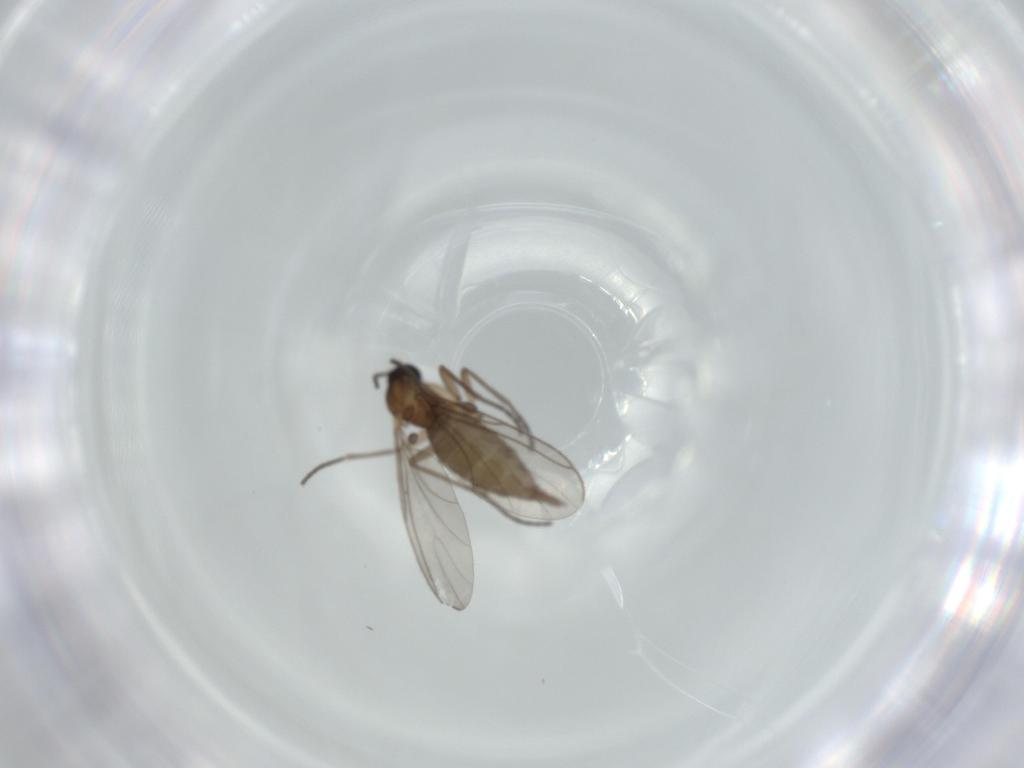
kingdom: Animalia
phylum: Arthropoda
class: Insecta
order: Diptera
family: Sciaridae
